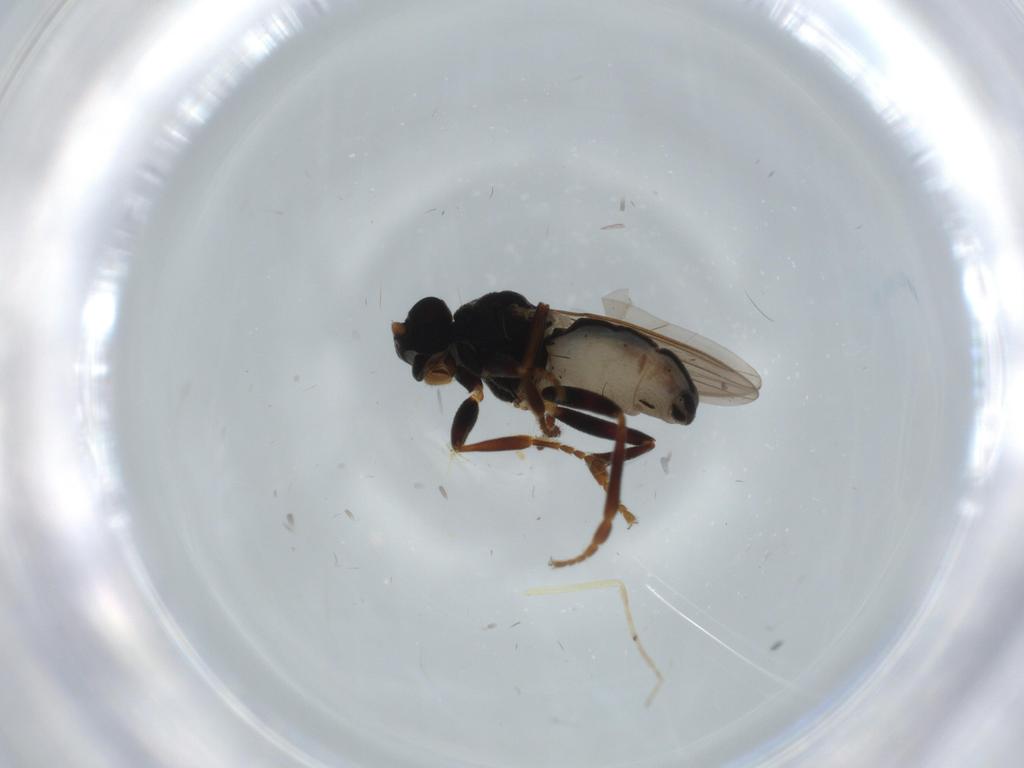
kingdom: Animalia
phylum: Arthropoda
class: Insecta
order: Diptera
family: Sphaeroceridae
